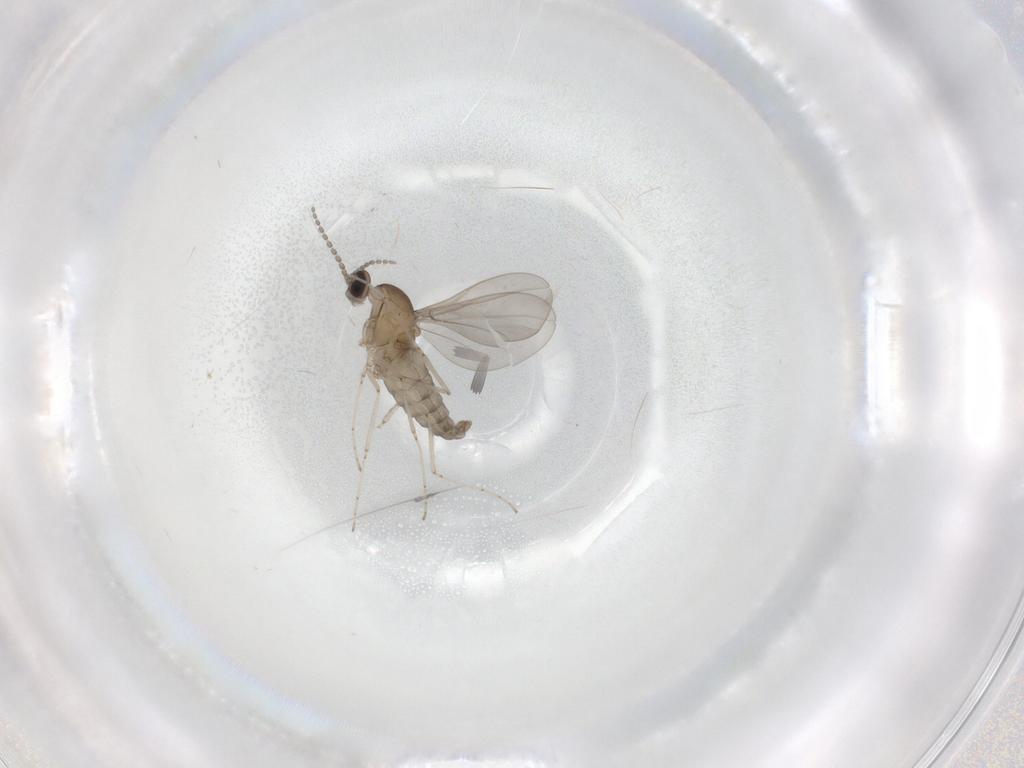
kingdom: Animalia
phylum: Arthropoda
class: Insecta
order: Diptera
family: Cecidomyiidae
